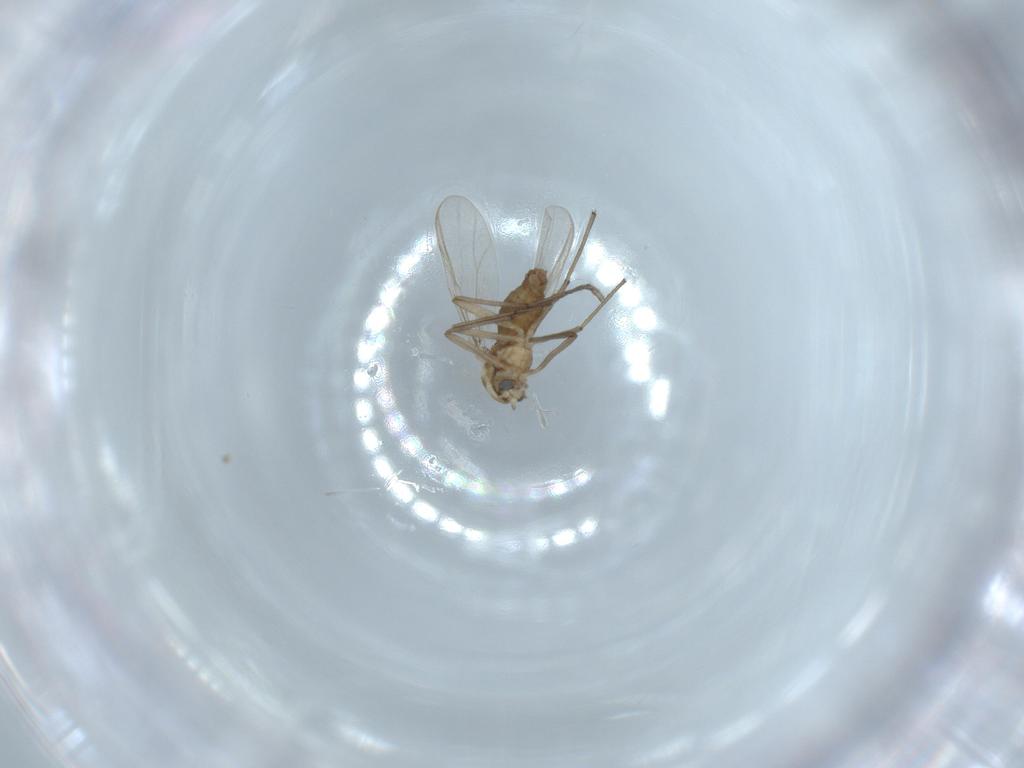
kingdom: Animalia
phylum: Arthropoda
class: Insecta
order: Diptera
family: Chironomidae
